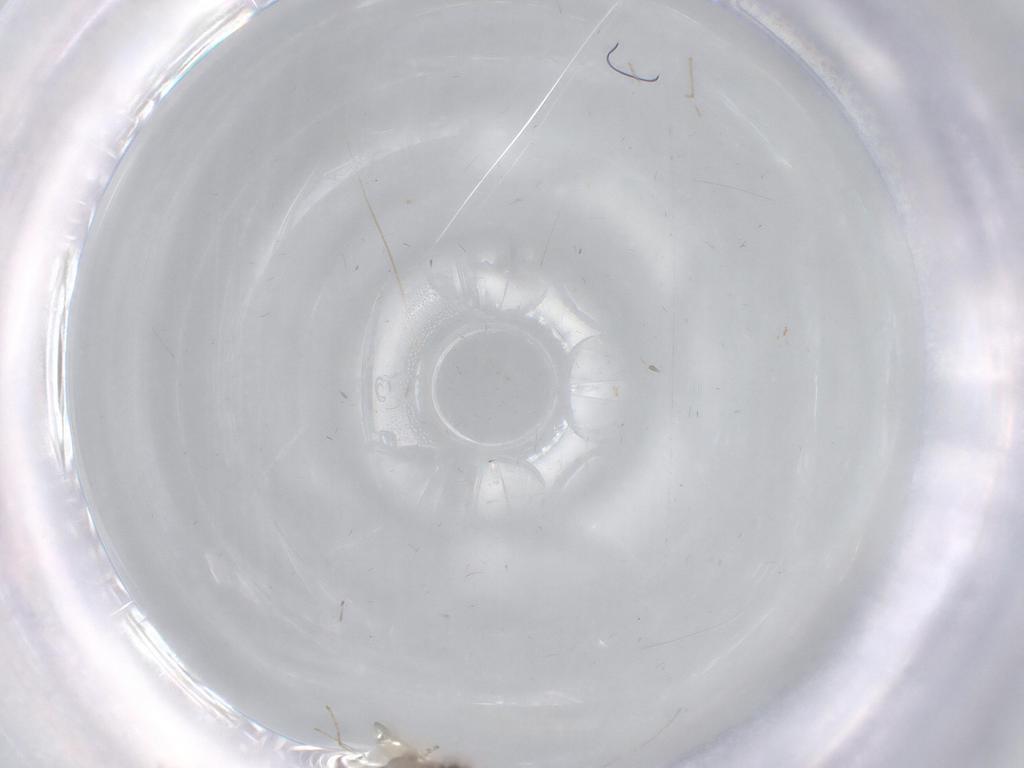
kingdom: Animalia
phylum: Arthropoda
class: Insecta
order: Diptera
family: Cecidomyiidae
